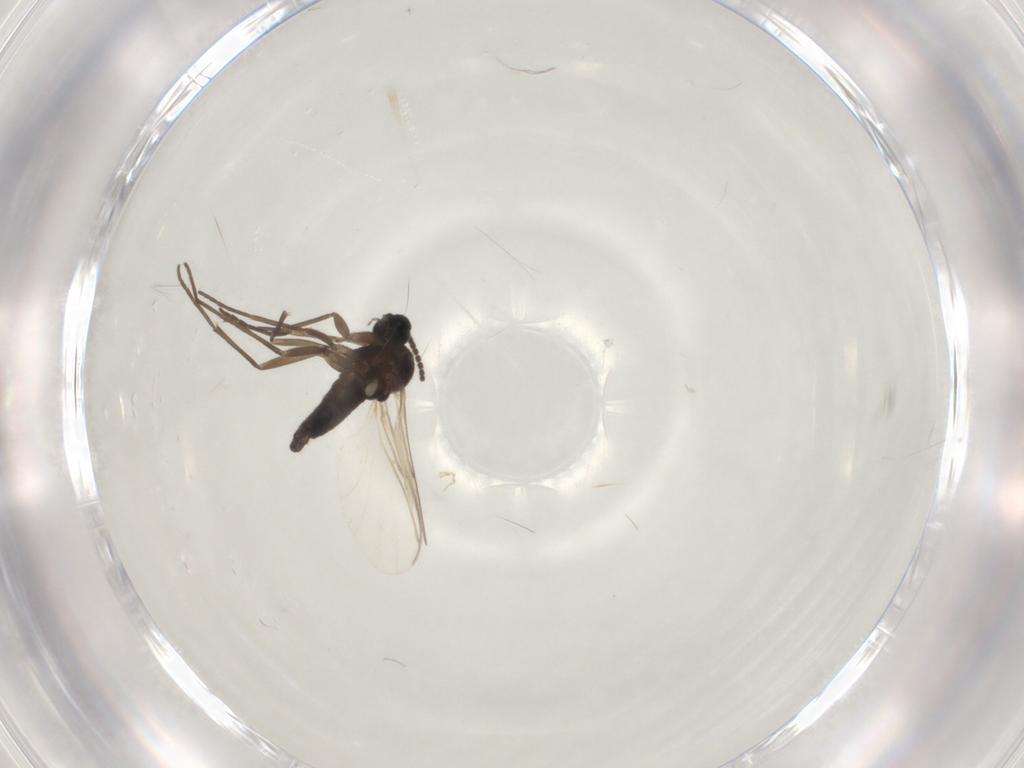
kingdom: Animalia
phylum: Arthropoda
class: Insecta
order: Diptera
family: Sciaridae
